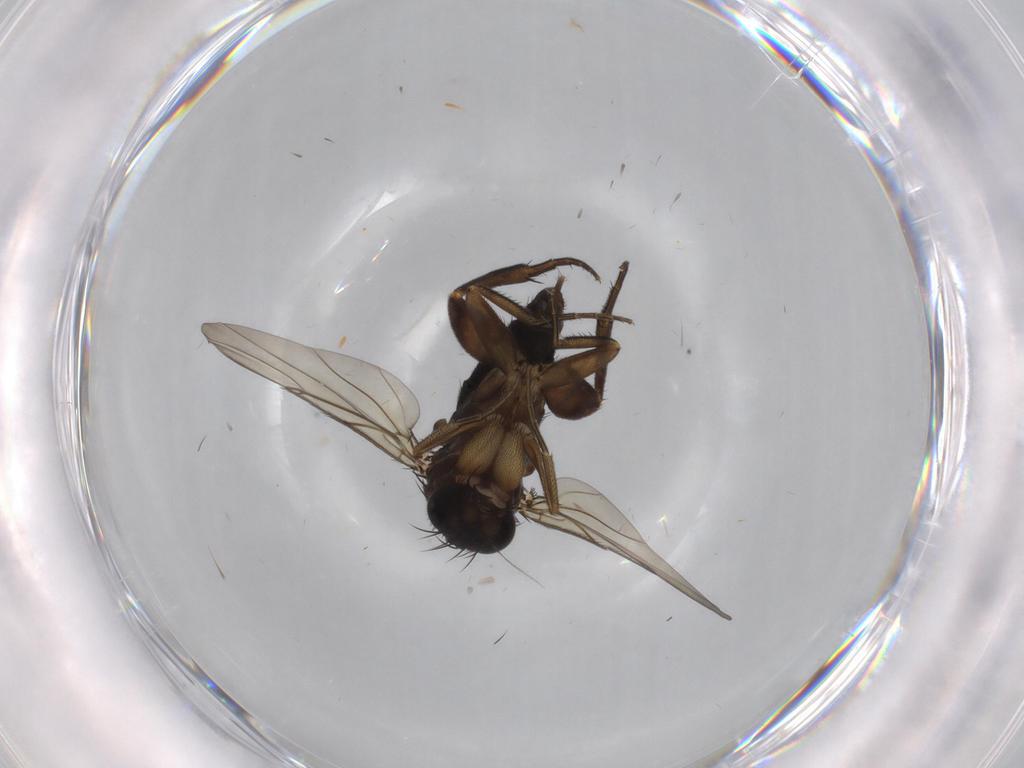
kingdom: Animalia
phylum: Arthropoda
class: Insecta
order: Diptera
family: Phoridae
